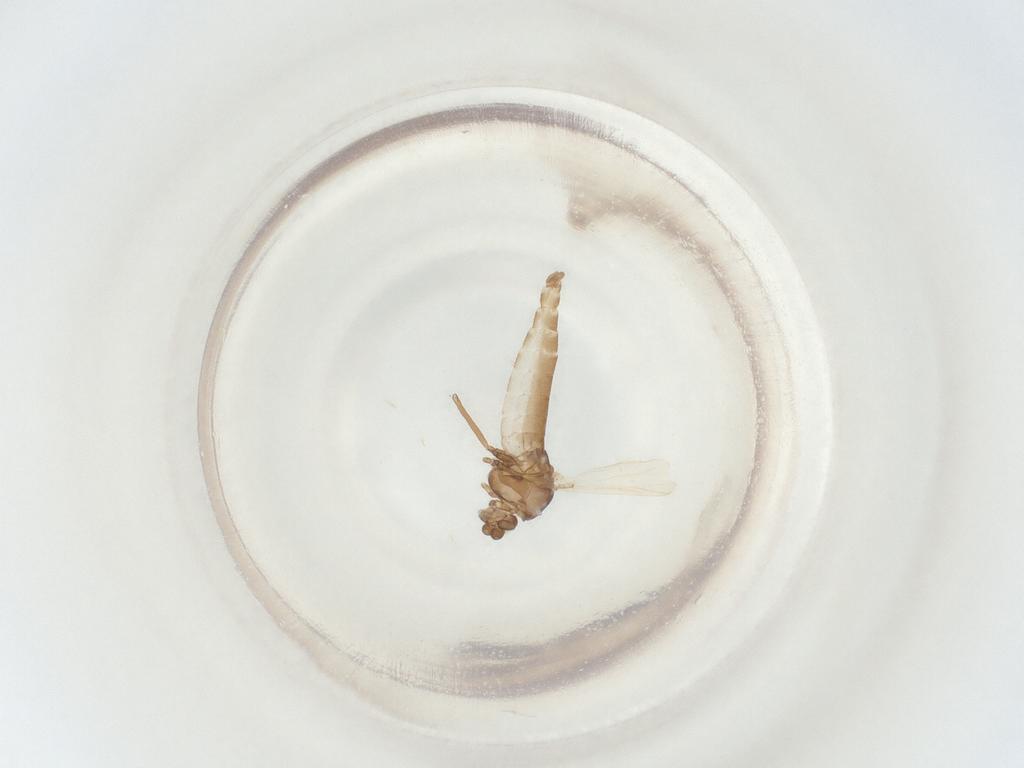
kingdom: Animalia
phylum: Arthropoda
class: Insecta
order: Diptera
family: Chironomidae
